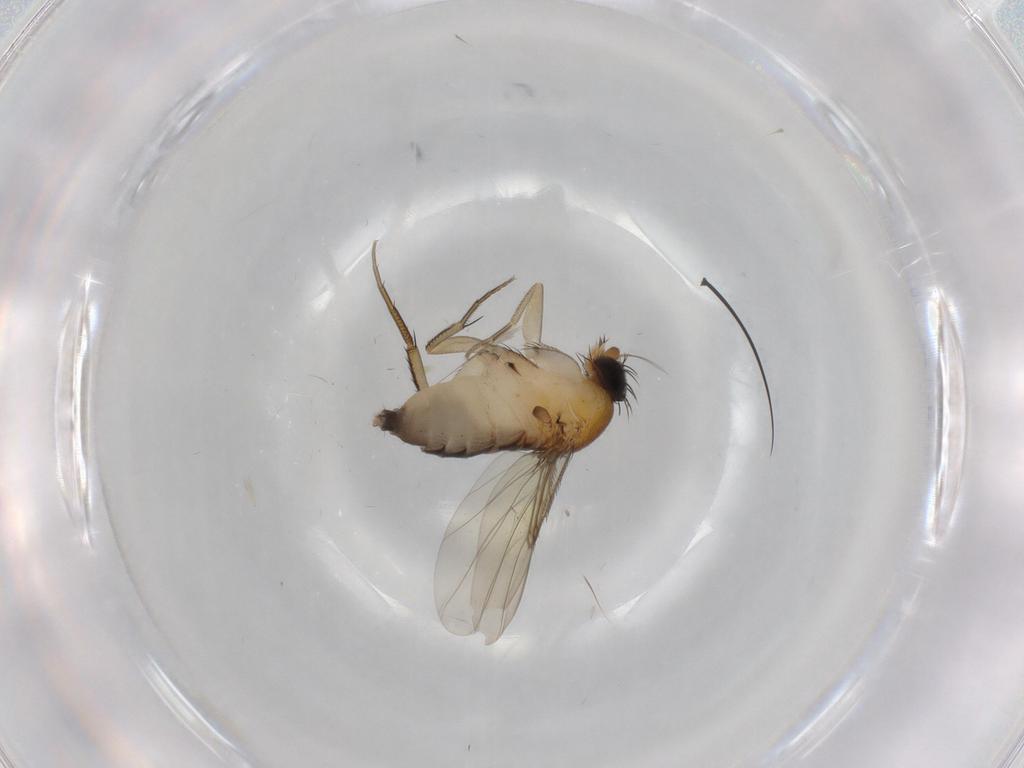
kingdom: Animalia
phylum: Arthropoda
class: Insecta
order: Diptera
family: Phoridae
